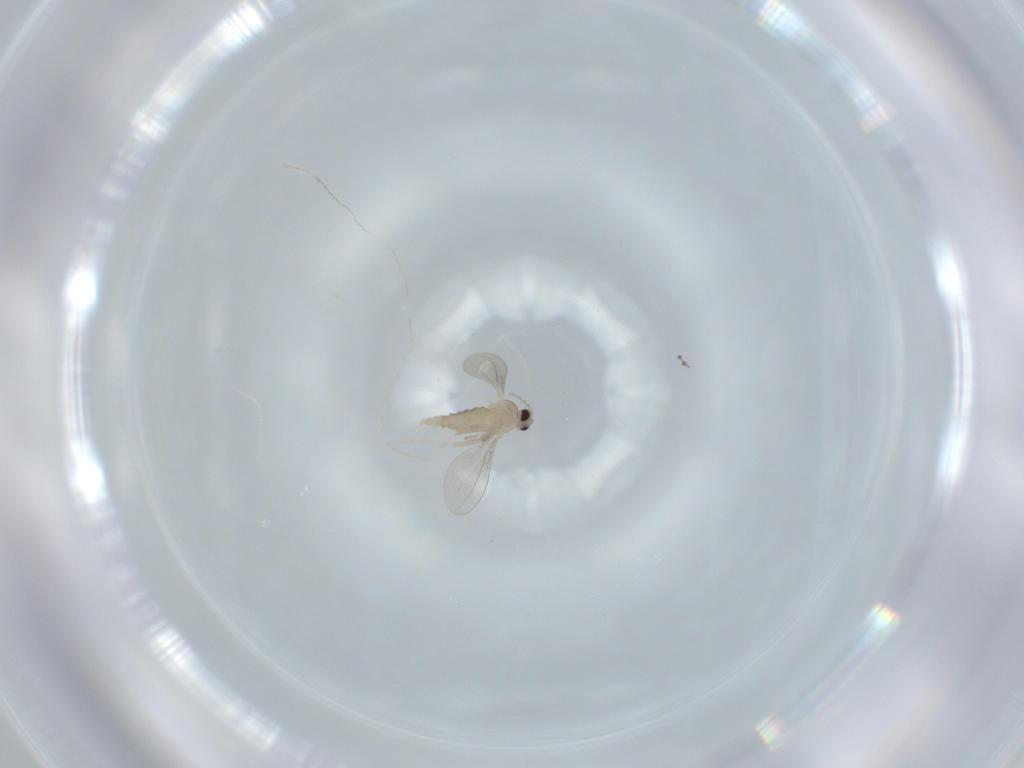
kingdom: Animalia
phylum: Arthropoda
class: Insecta
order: Diptera
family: Cecidomyiidae
